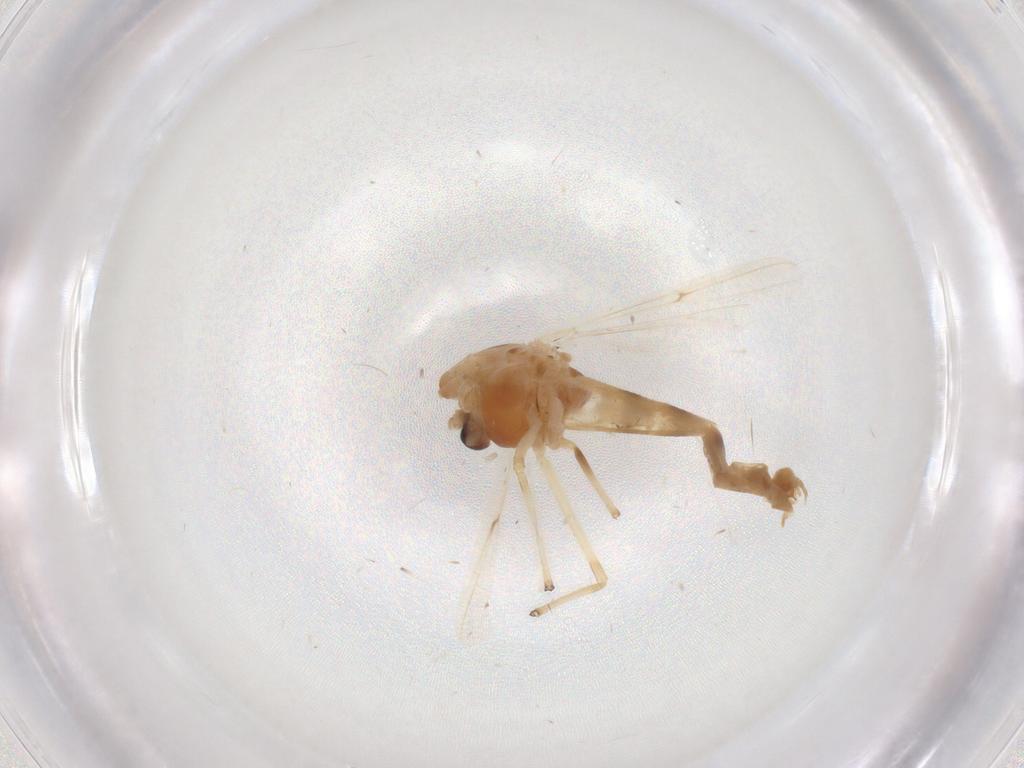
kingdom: Animalia
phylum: Arthropoda
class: Insecta
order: Diptera
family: Chironomidae
